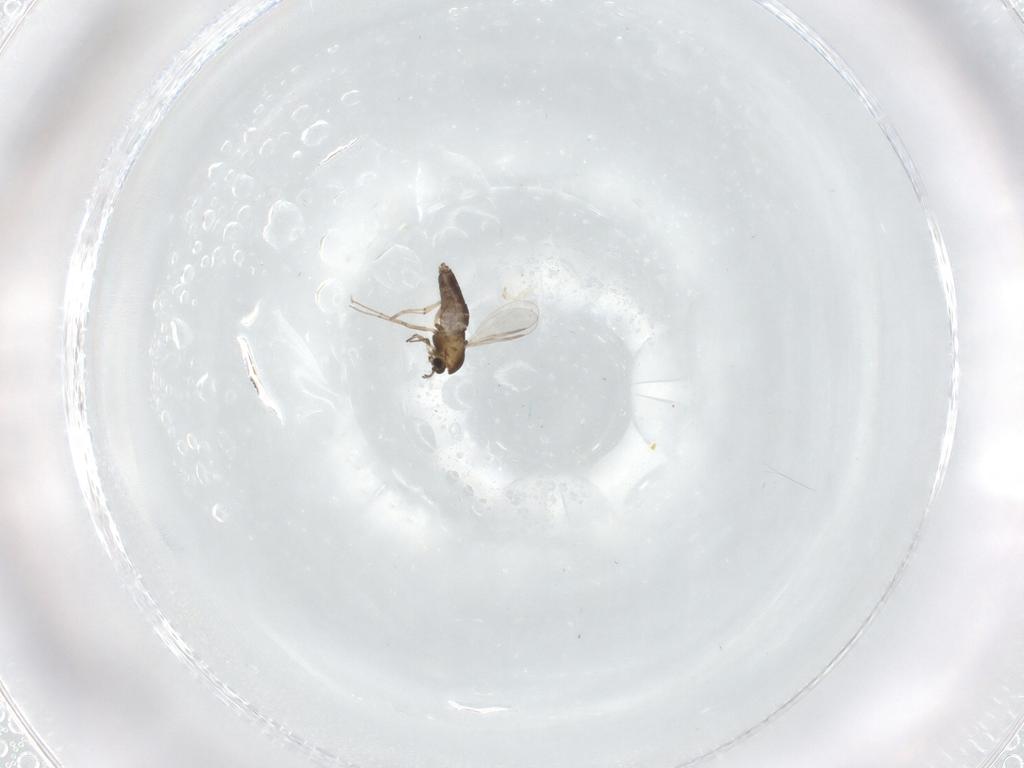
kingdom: Animalia
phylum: Arthropoda
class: Insecta
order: Diptera
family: Chironomidae
